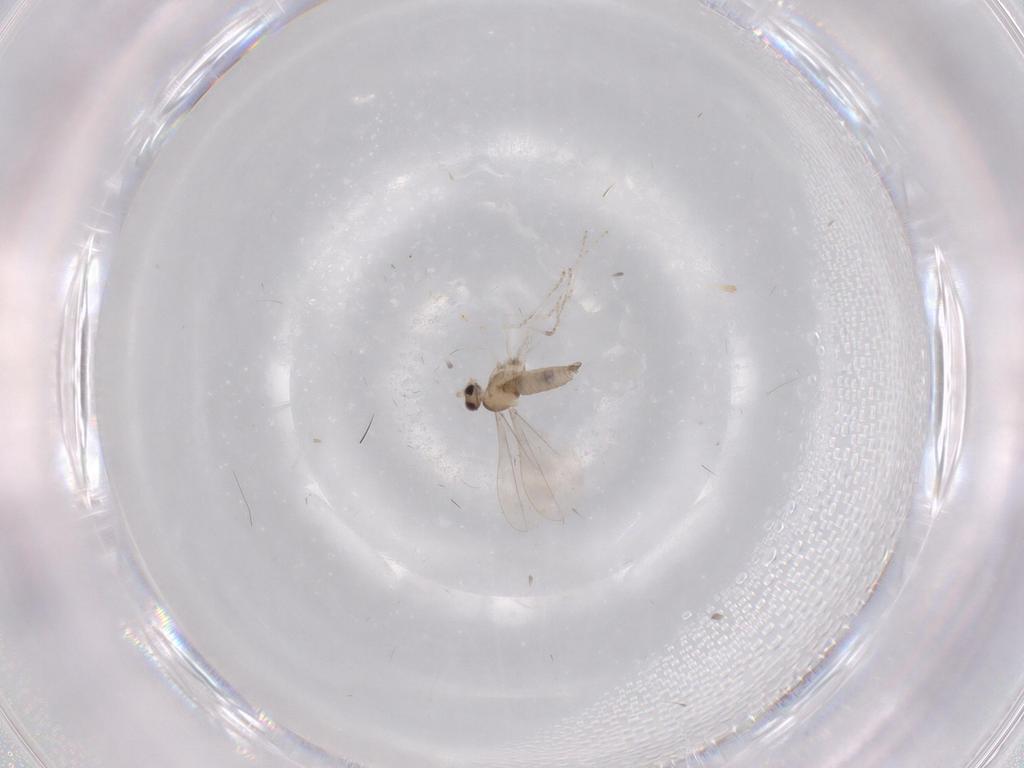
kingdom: Animalia
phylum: Arthropoda
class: Insecta
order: Diptera
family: Cecidomyiidae
